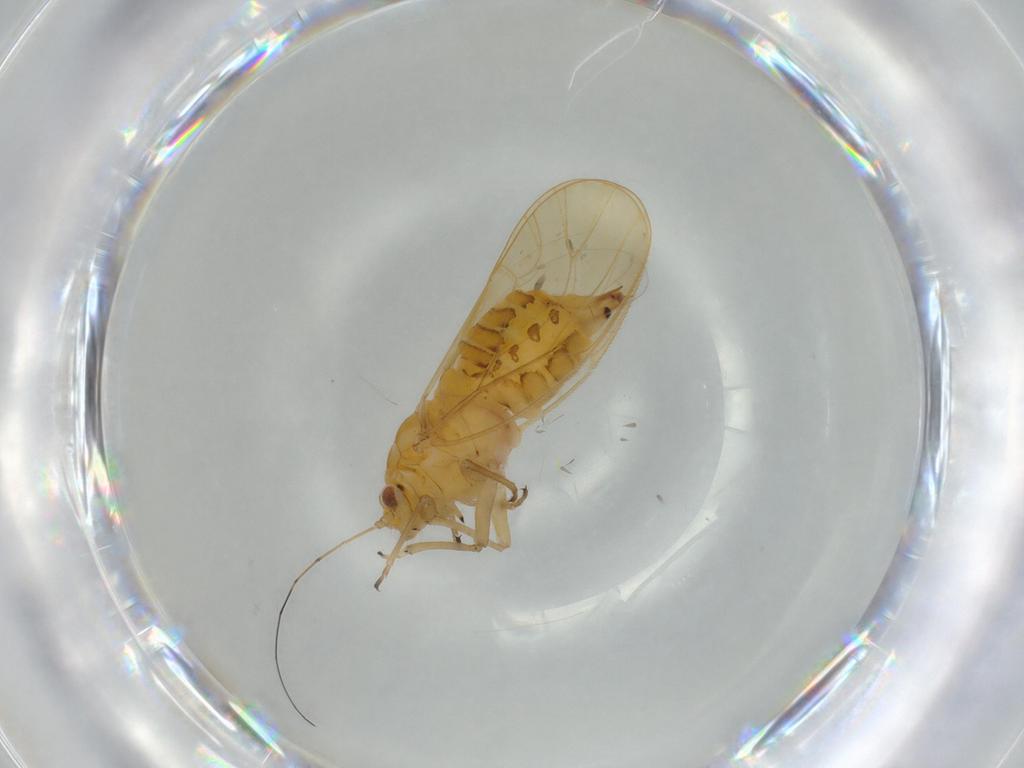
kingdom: Animalia
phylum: Arthropoda
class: Insecta
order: Hemiptera
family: Psyllidae
